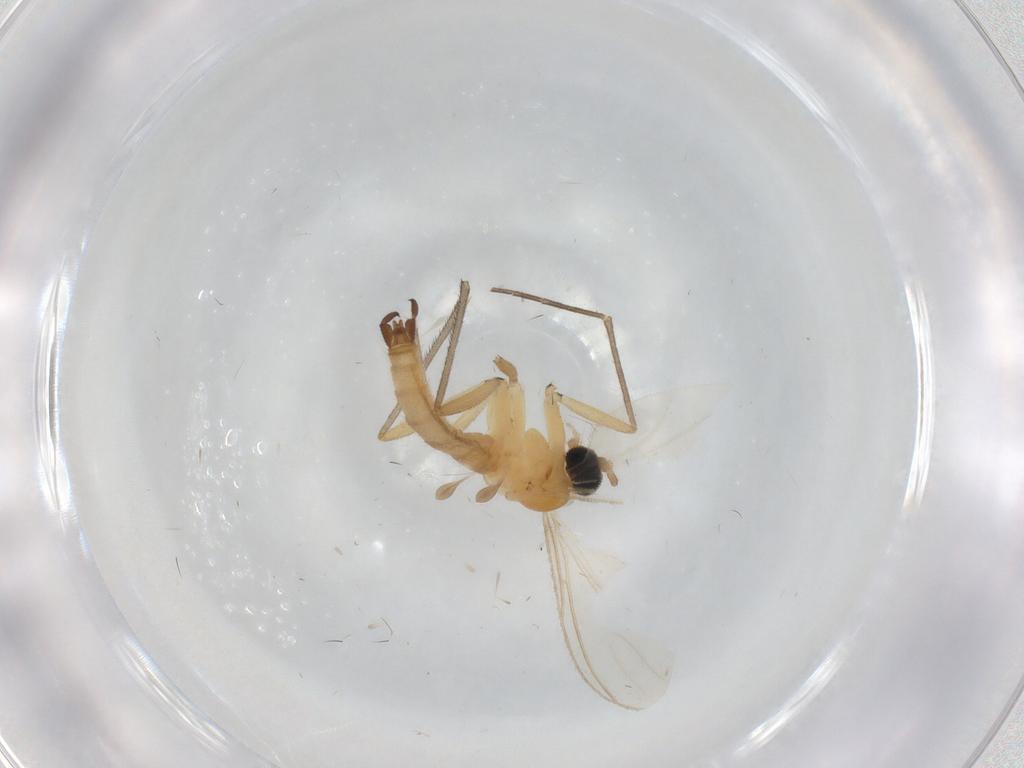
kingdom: Animalia
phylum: Arthropoda
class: Insecta
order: Diptera
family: Sciaridae
